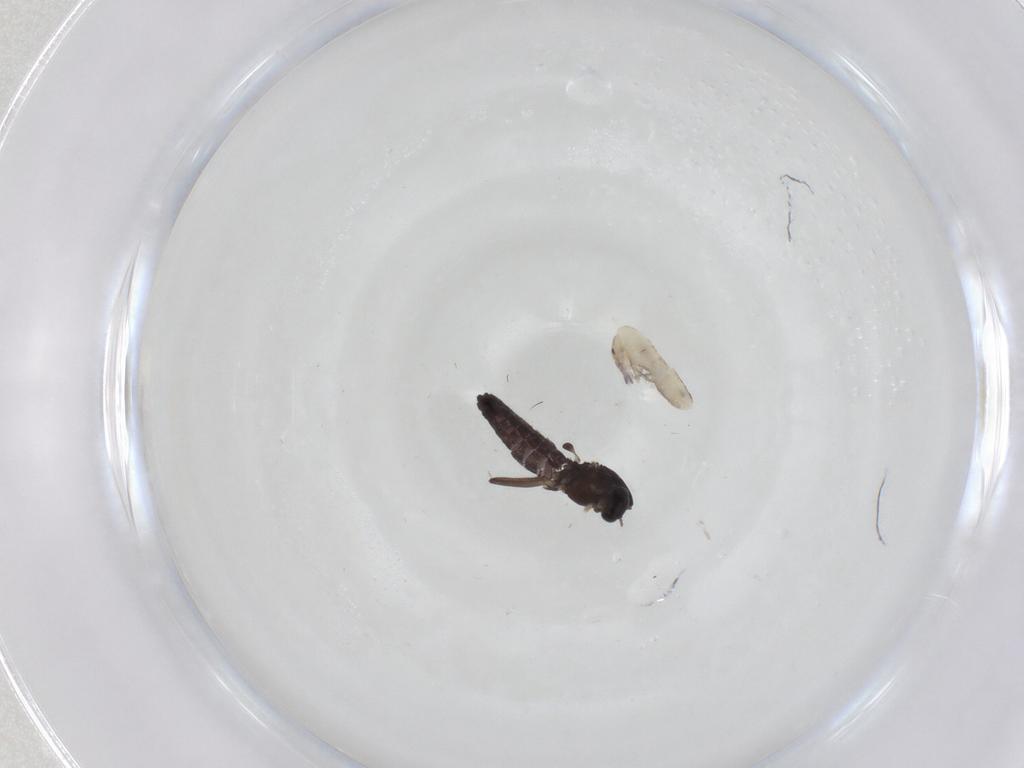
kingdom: Animalia
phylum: Arthropoda
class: Insecta
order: Diptera
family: Chironomidae
